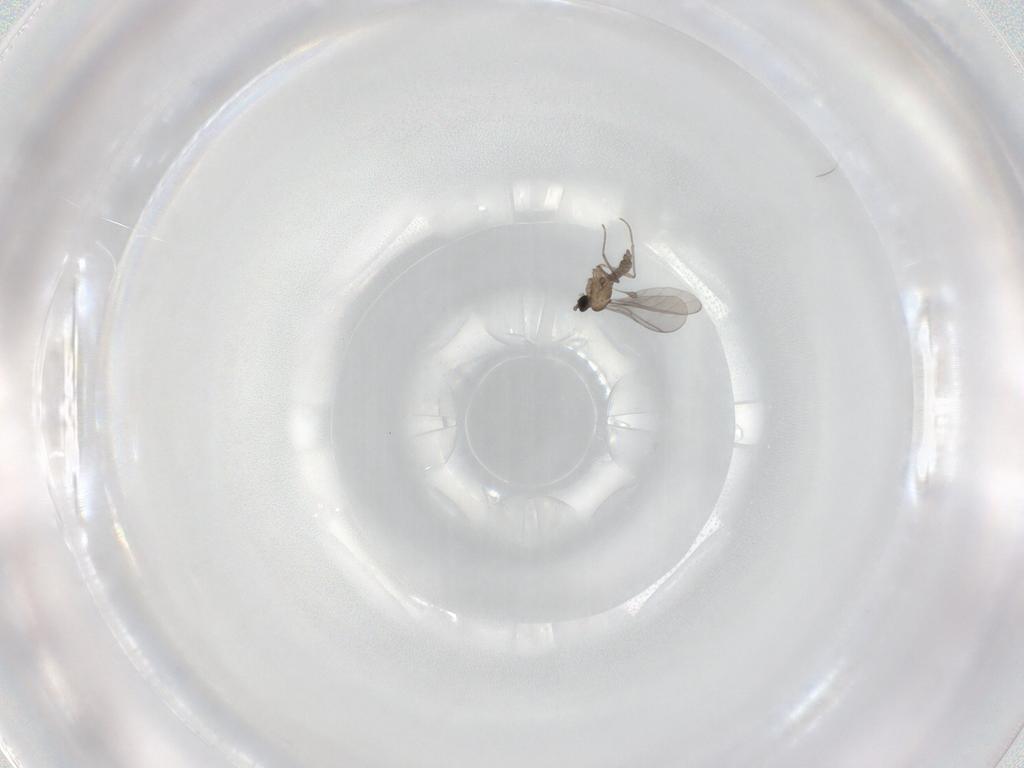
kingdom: Animalia
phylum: Arthropoda
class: Insecta
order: Diptera
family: Sciaridae
